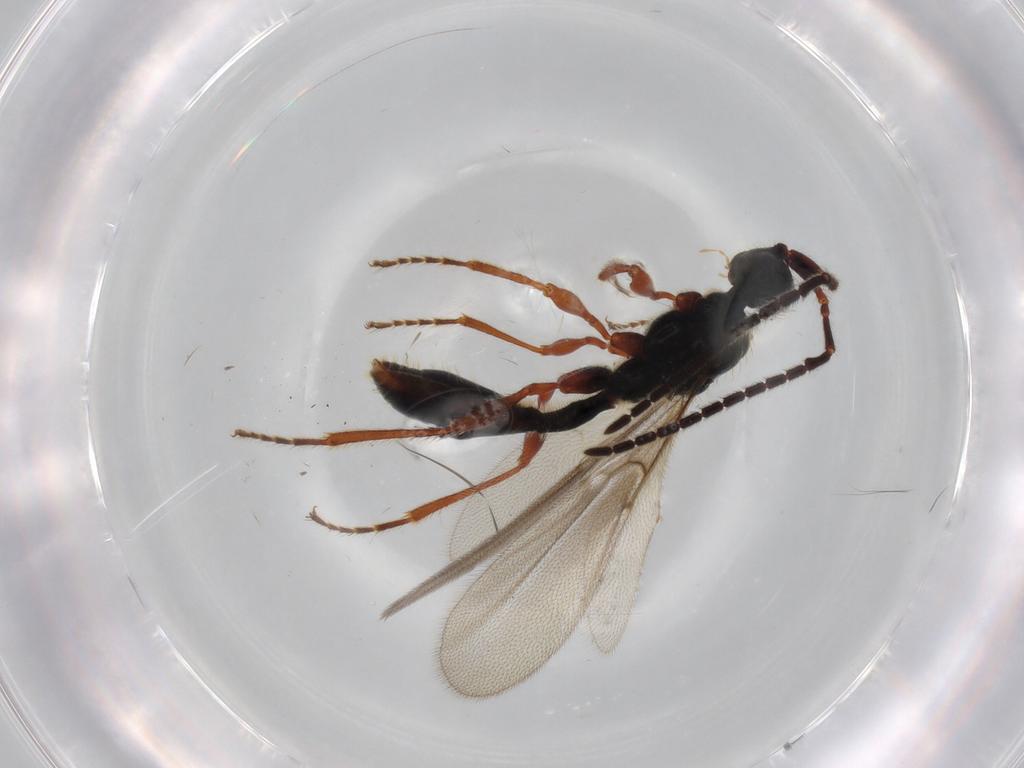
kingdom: Animalia
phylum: Arthropoda
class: Insecta
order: Hymenoptera
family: Diapriidae
